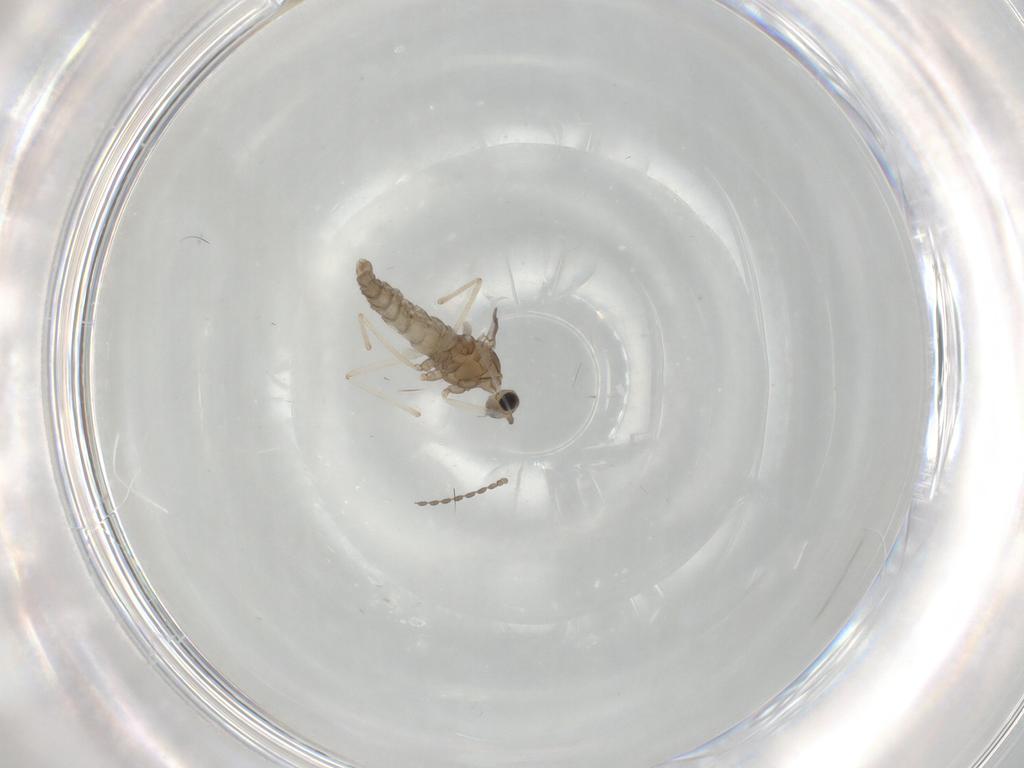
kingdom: Animalia
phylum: Arthropoda
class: Insecta
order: Diptera
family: Cecidomyiidae
